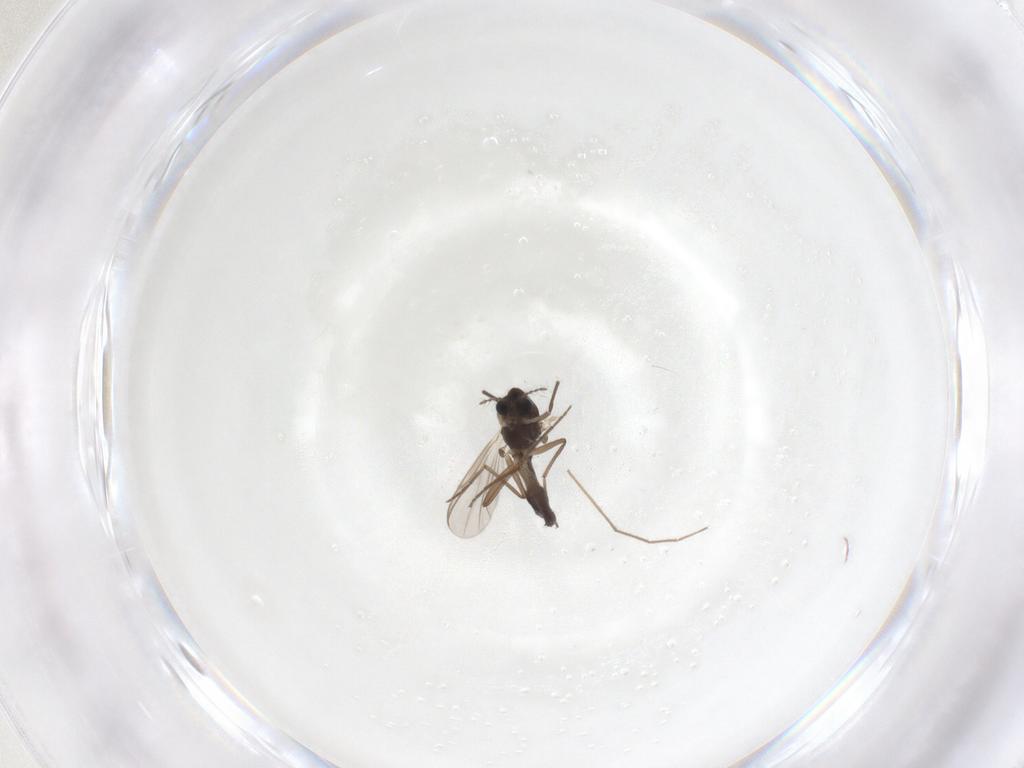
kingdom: Animalia
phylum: Arthropoda
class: Insecta
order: Diptera
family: Chironomidae
